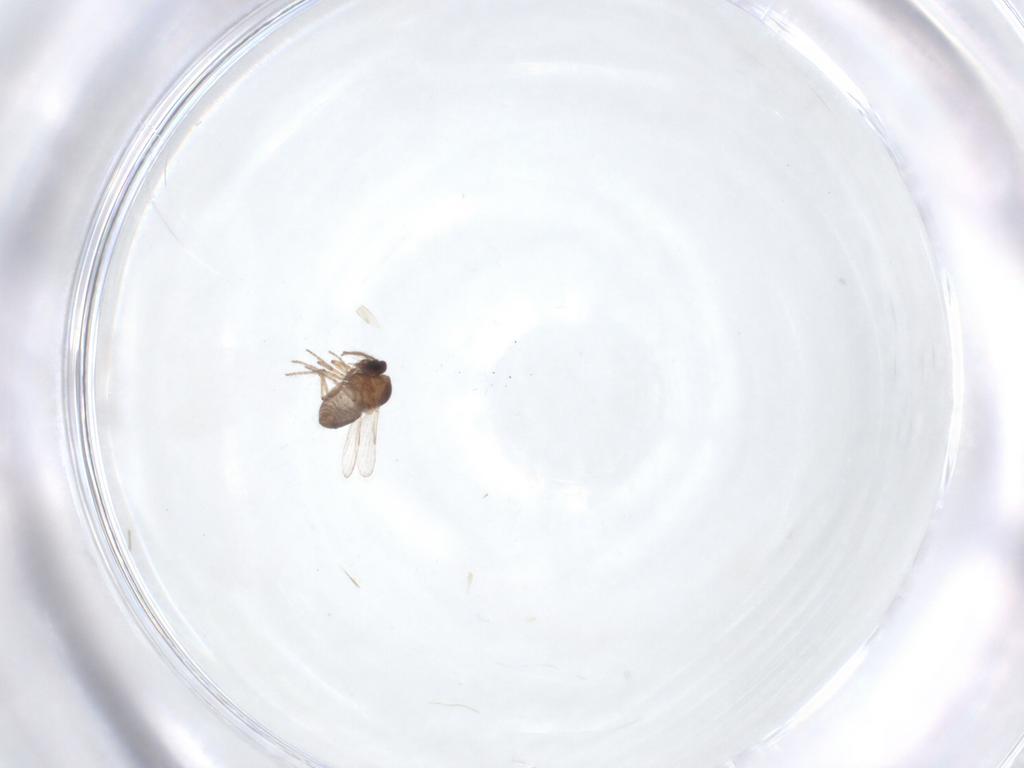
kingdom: Animalia
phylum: Arthropoda
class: Insecta
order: Diptera
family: Ceratopogonidae
